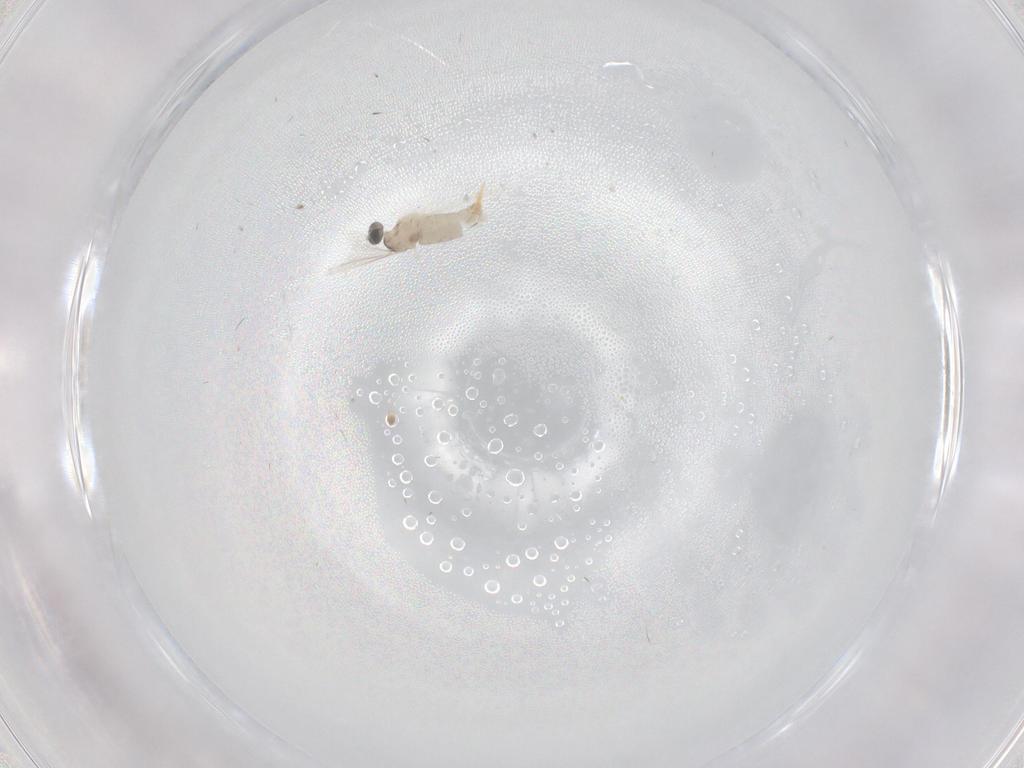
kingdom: Animalia
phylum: Arthropoda
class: Insecta
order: Diptera
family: Cecidomyiidae
